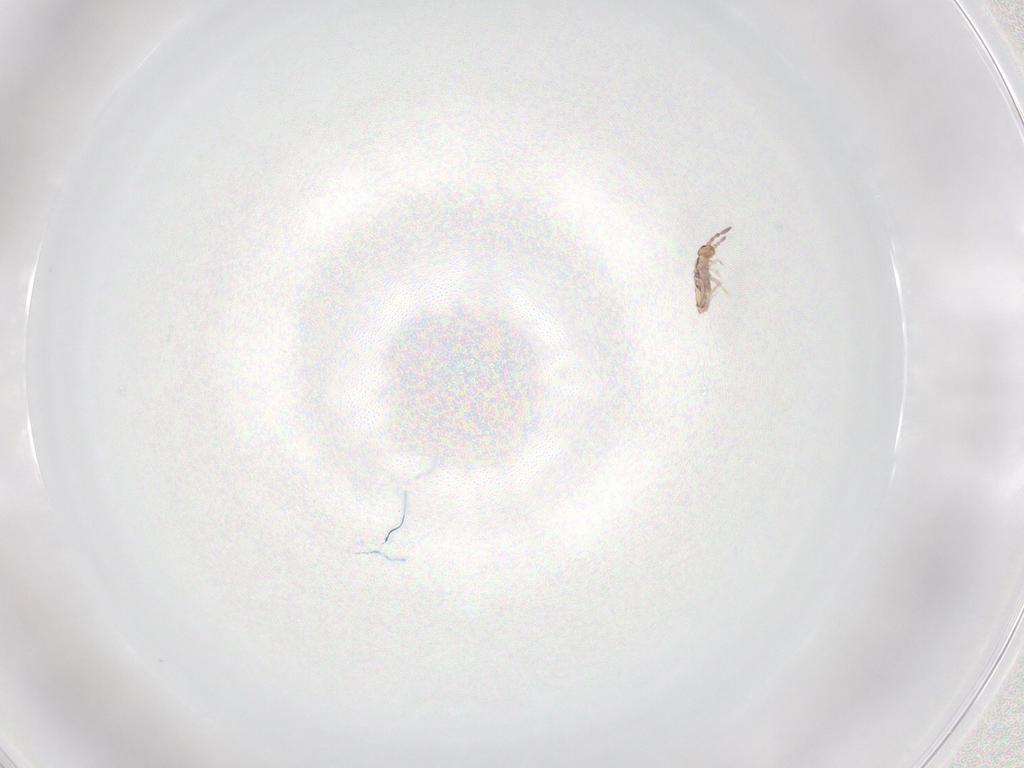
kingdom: Animalia
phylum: Arthropoda
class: Collembola
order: Entomobryomorpha
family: Entomobryidae
